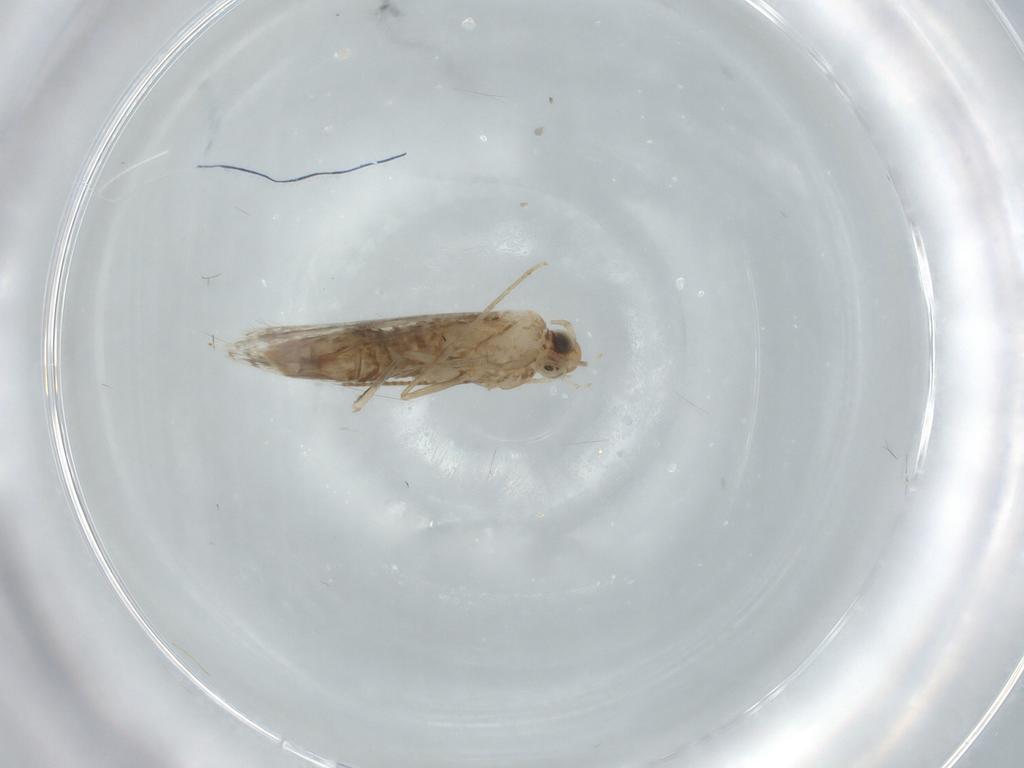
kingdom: Animalia
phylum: Arthropoda
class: Insecta
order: Lepidoptera
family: Gracillariidae
